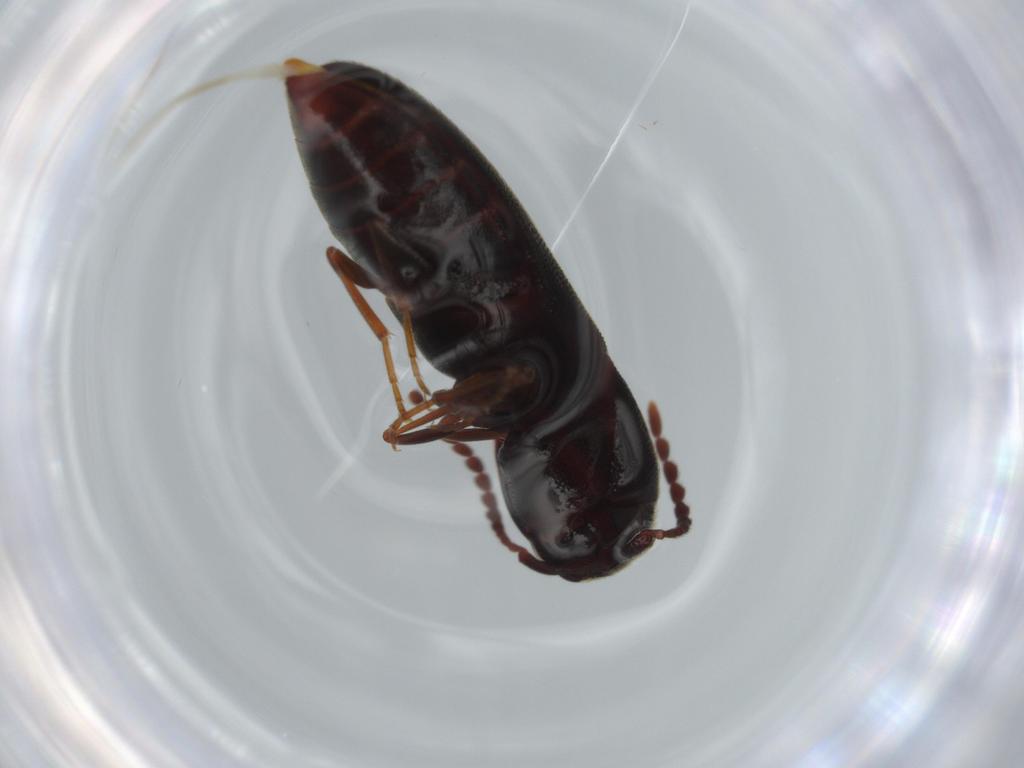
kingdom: Animalia
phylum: Arthropoda
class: Insecta
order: Coleoptera
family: Eucnemidae
